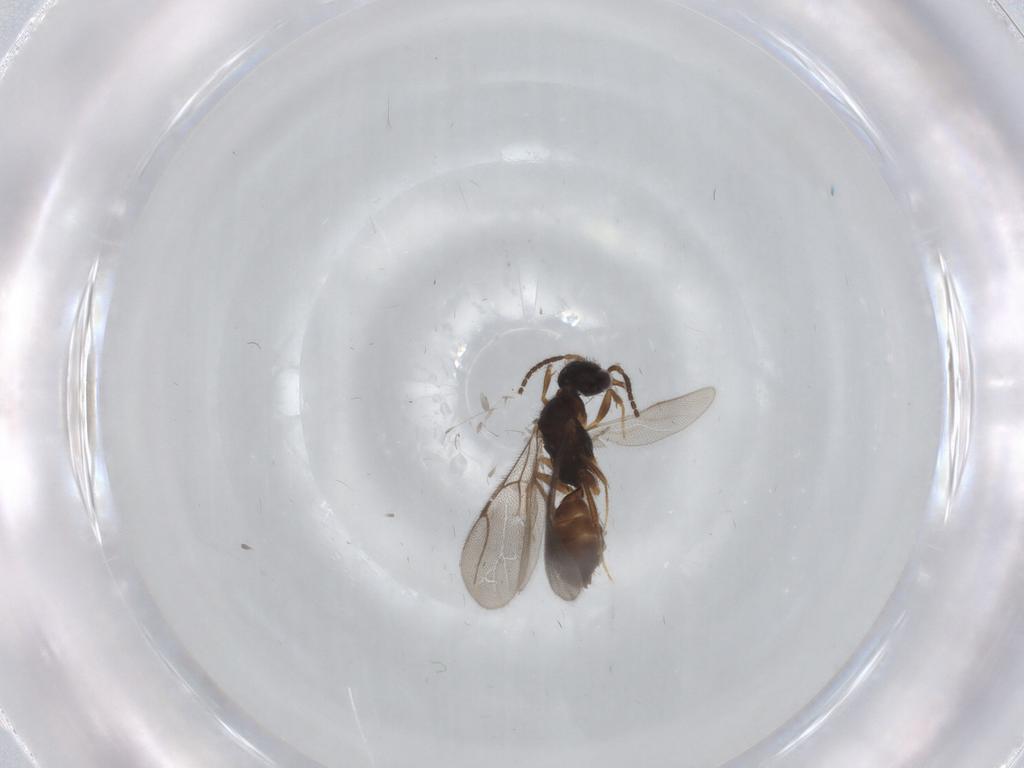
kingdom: Animalia
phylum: Arthropoda
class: Insecta
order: Hymenoptera
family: Bethylidae
